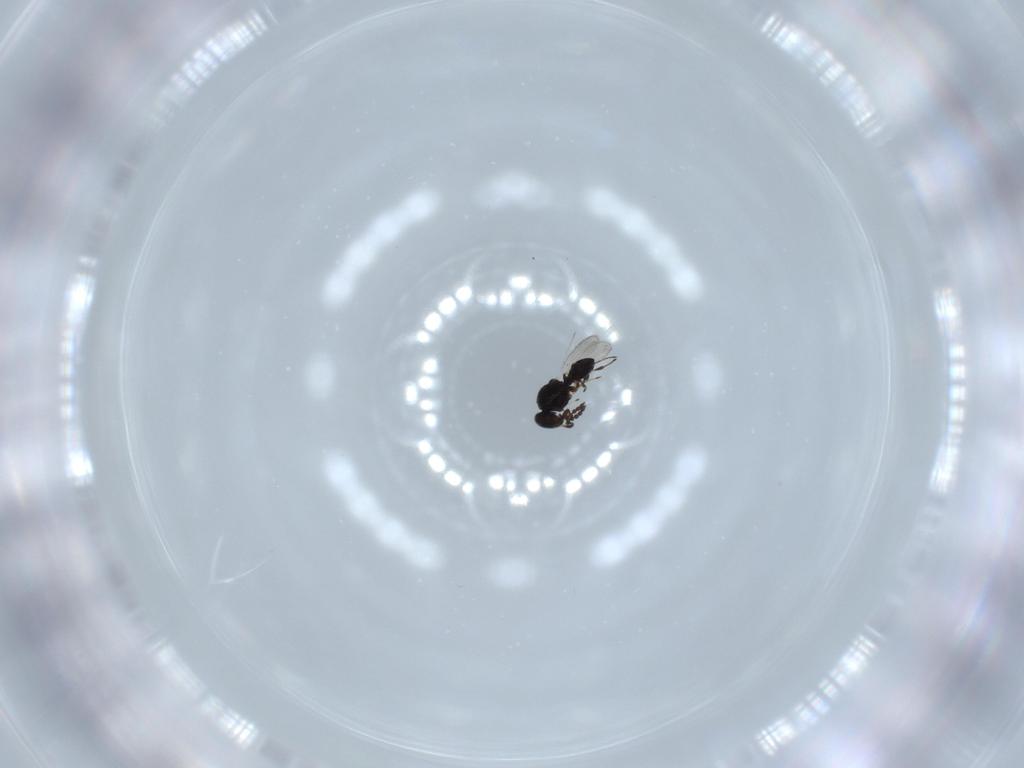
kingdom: Animalia
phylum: Arthropoda
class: Insecta
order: Hymenoptera
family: Platygastridae
